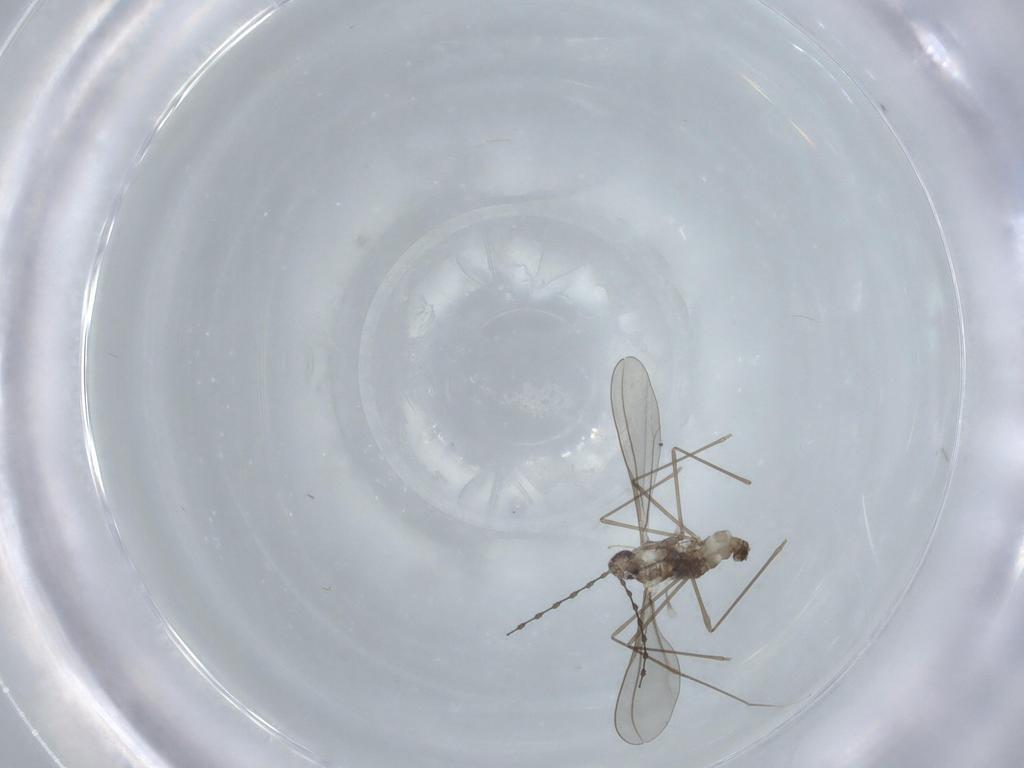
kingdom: Animalia
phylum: Arthropoda
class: Insecta
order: Diptera
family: Cecidomyiidae
